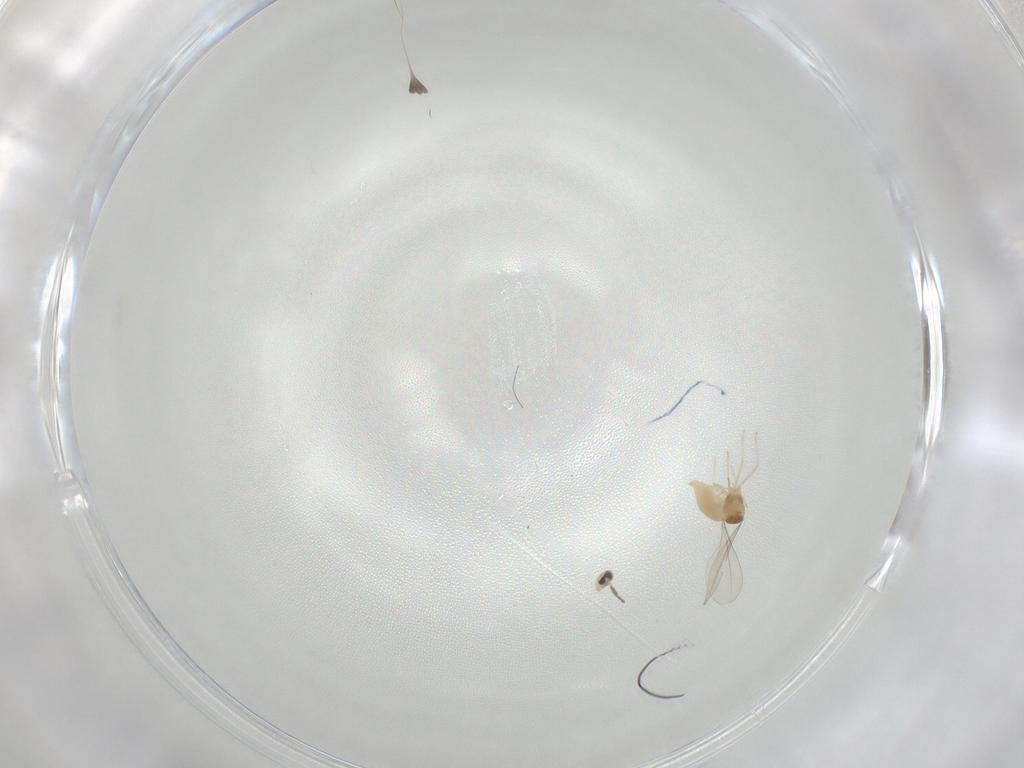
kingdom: Animalia
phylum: Arthropoda
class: Insecta
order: Diptera
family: Cecidomyiidae
